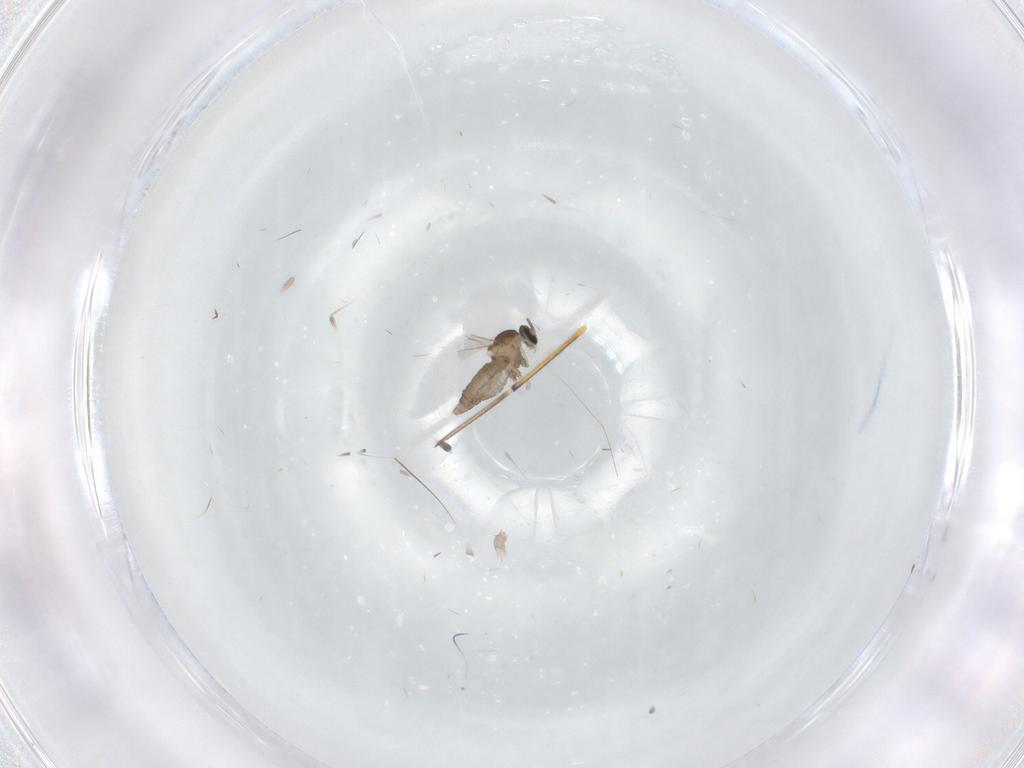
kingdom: Animalia
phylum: Arthropoda
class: Insecta
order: Diptera
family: Cecidomyiidae
